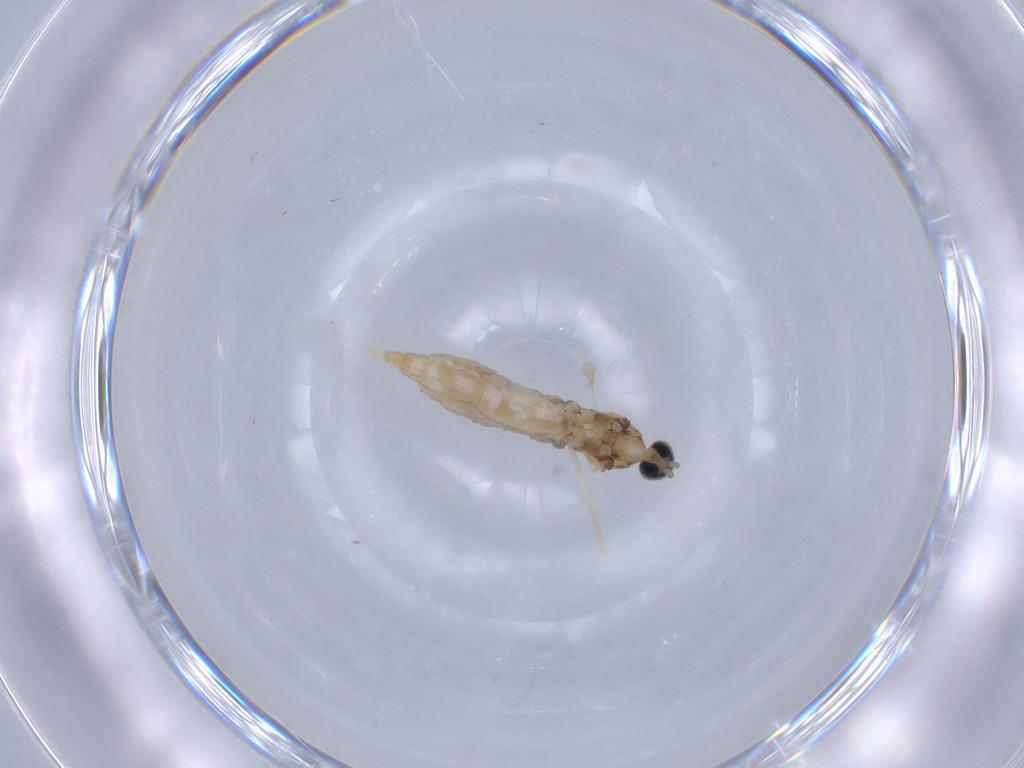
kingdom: Animalia
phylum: Arthropoda
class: Insecta
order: Diptera
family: Cecidomyiidae
